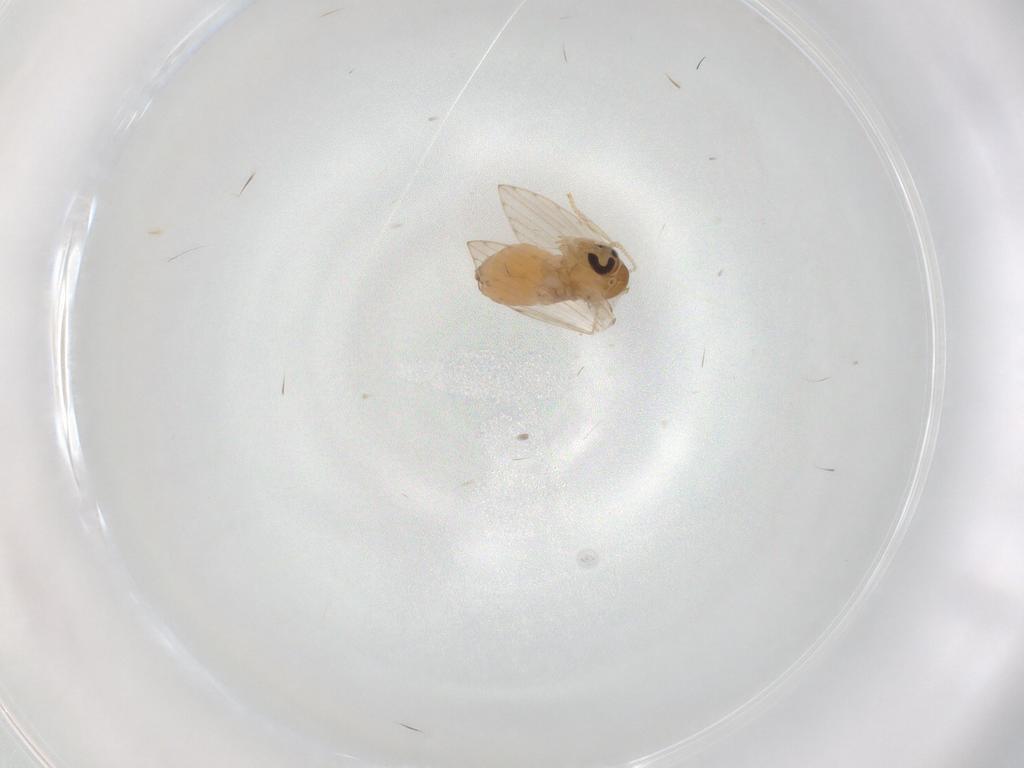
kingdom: Animalia
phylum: Arthropoda
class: Insecta
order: Diptera
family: Psychodidae
